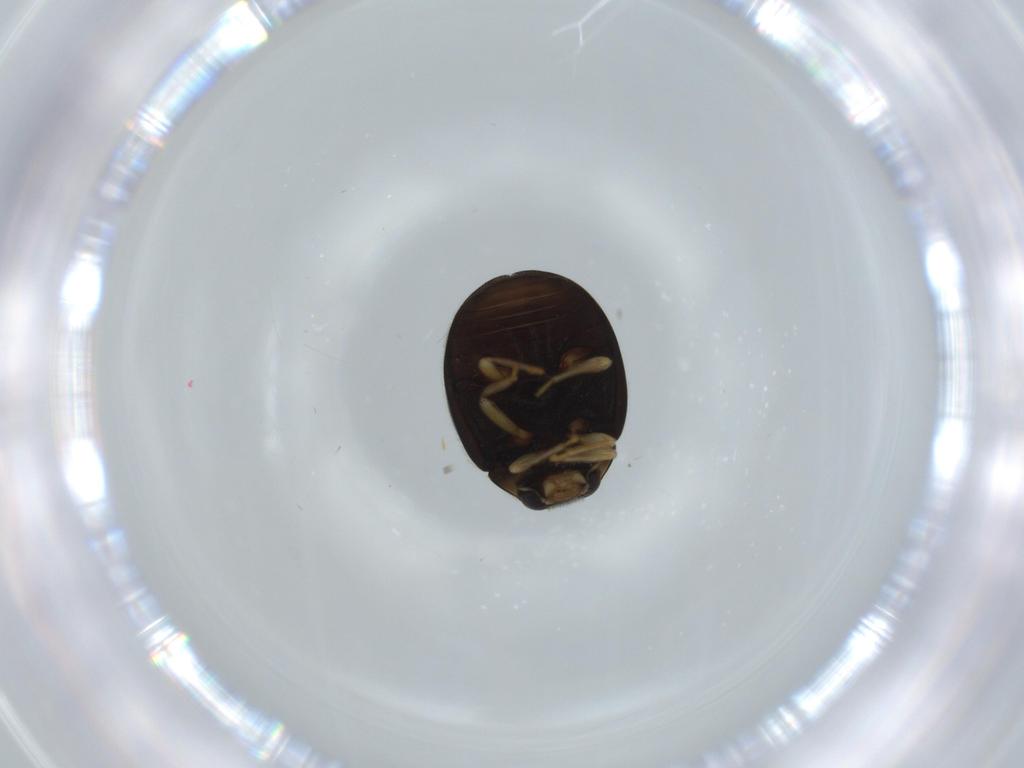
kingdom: Animalia
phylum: Arthropoda
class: Insecta
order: Coleoptera
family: Coccinellidae
